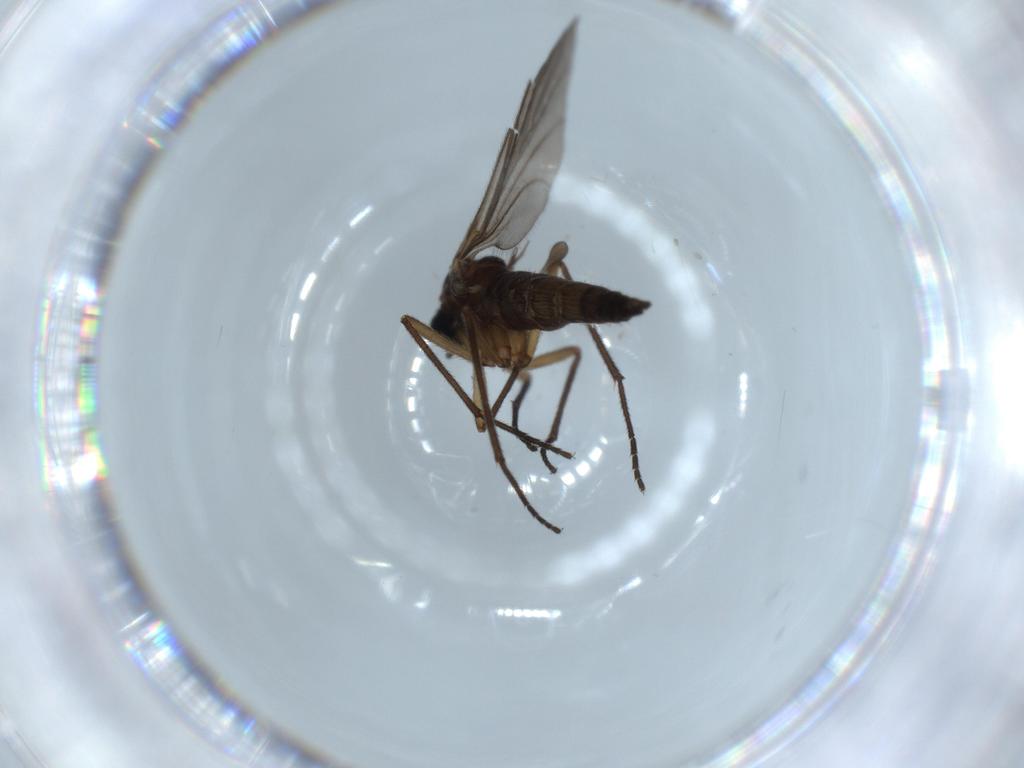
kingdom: Animalia
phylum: Arthropoda
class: Insecta
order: Diptera
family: Sciaridae
